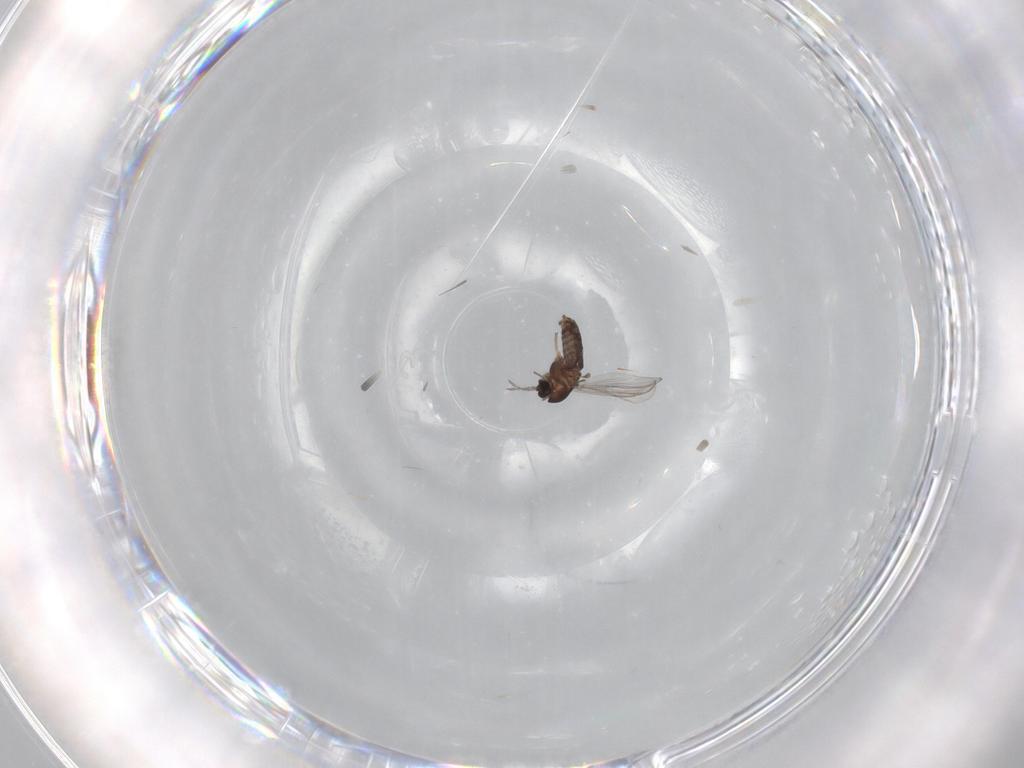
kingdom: Animalia
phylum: Arthropoda
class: Insecta
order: Diptera
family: Chironomidae
